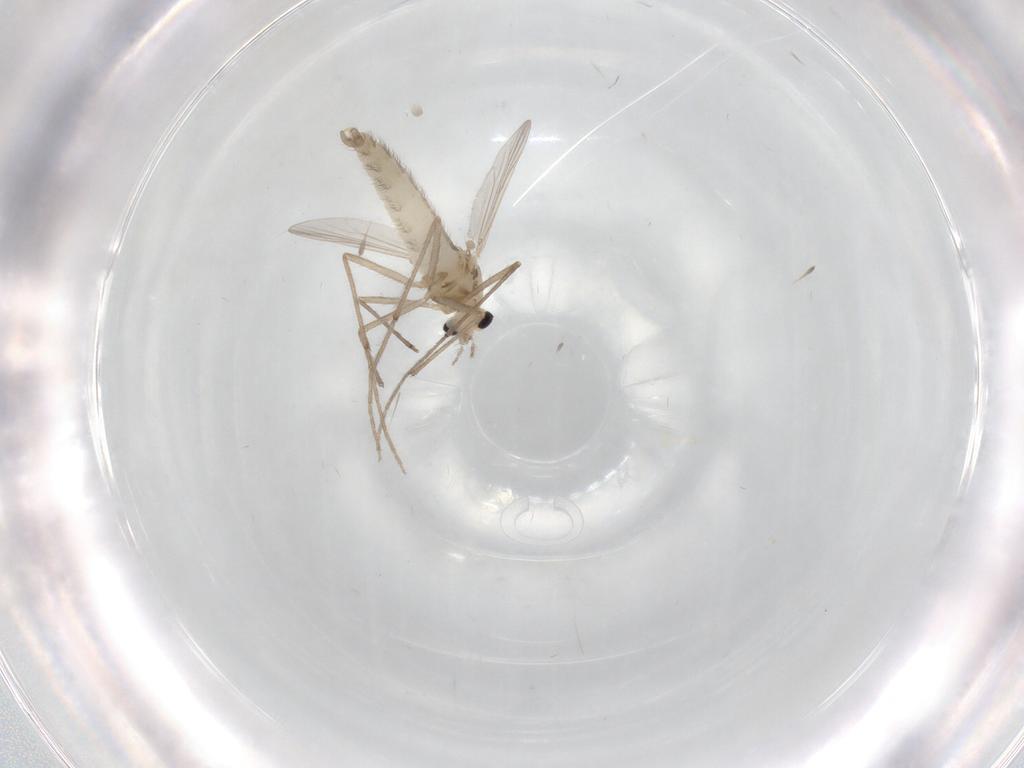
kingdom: Animalia
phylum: Arthropoda
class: Insecta
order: Diptera
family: Chironomidae
